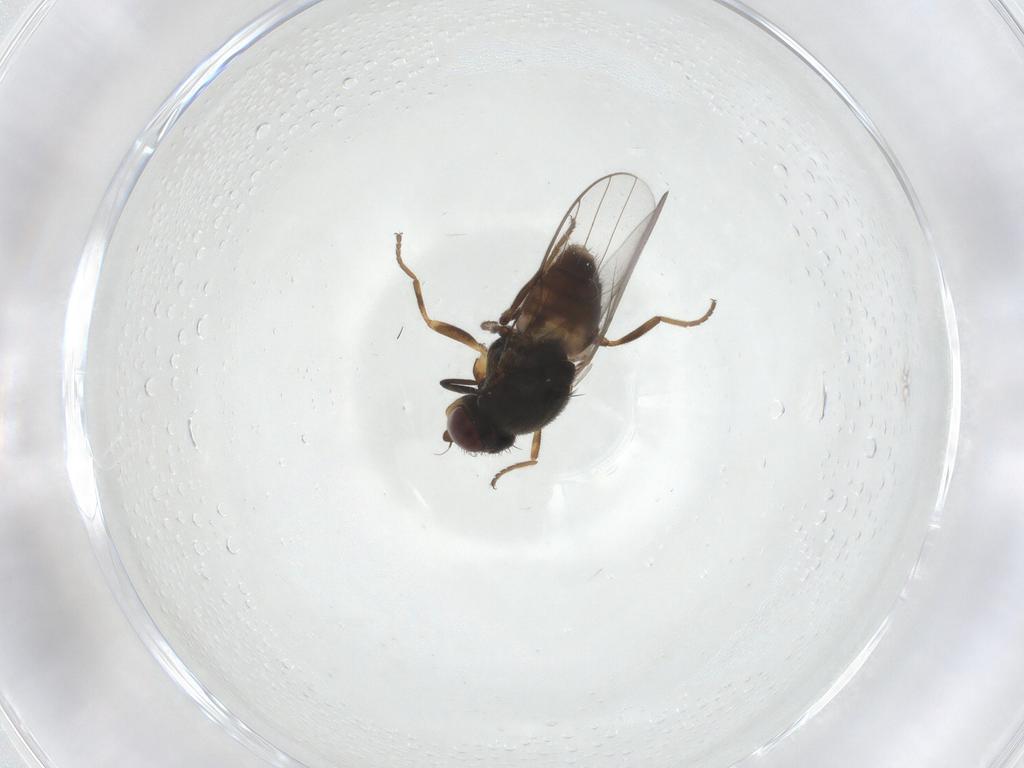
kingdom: Animalia
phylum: Arthropoda
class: Insecta
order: Diptera
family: Chloropidae
